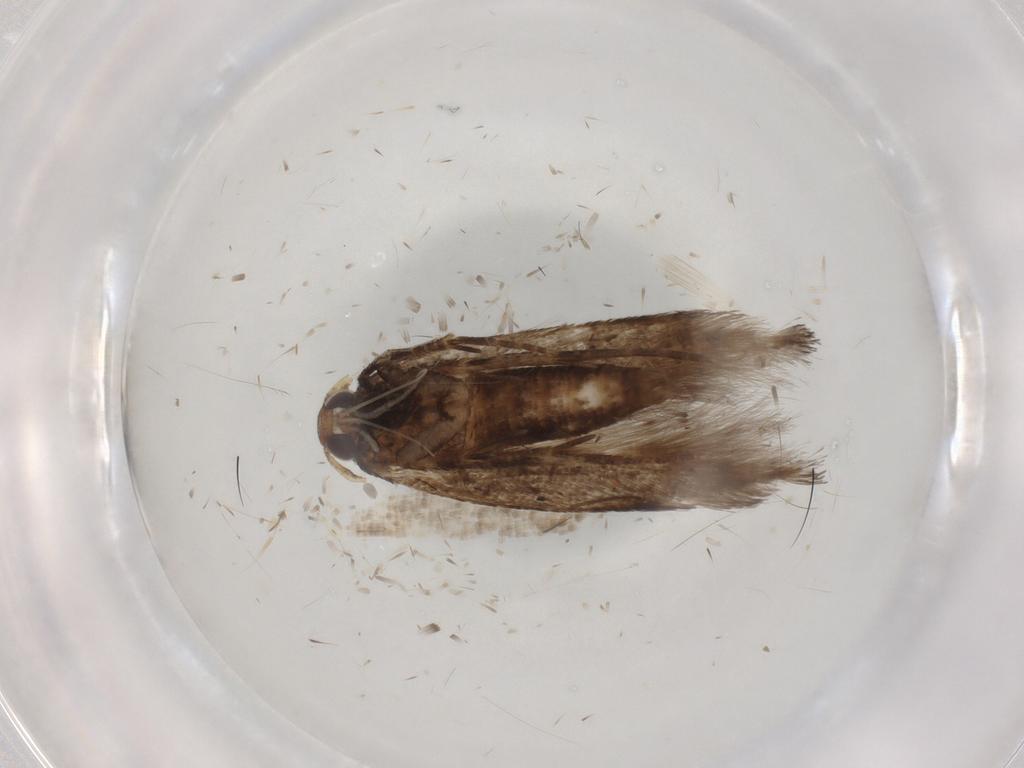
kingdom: Animalia
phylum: Arthropoda
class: Insecta
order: Lepidoptera
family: Cosmopterigidae
